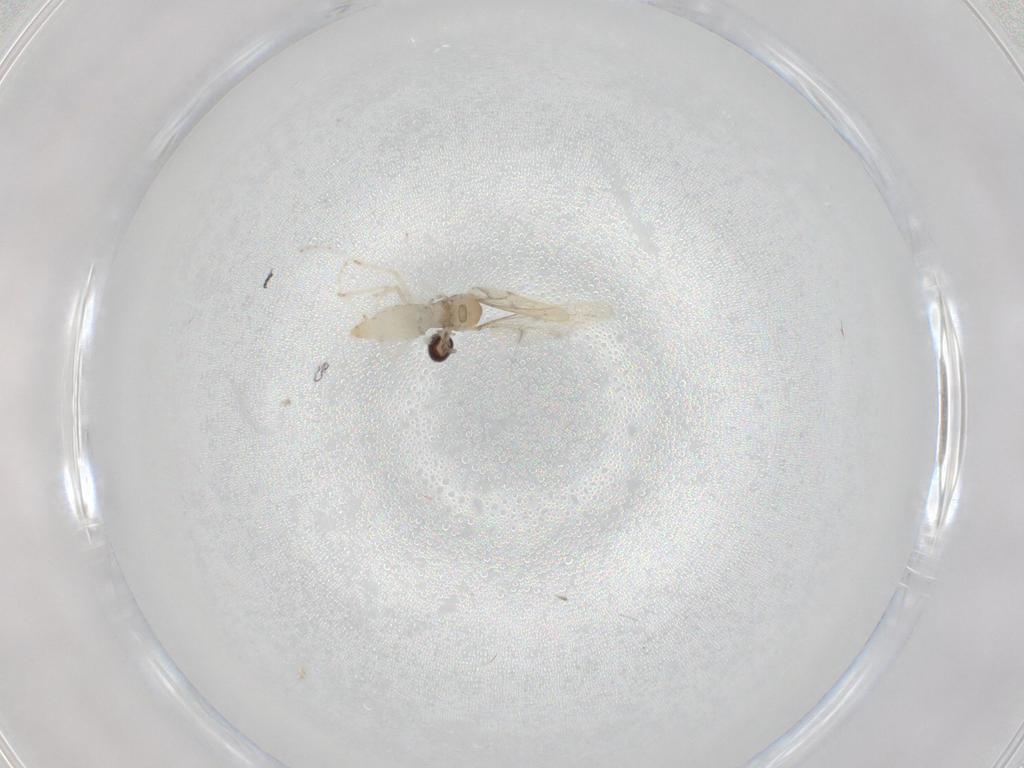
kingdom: Animalia
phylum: Arthropoda
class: Insecta
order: Diptera
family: Cecidomyiidae
